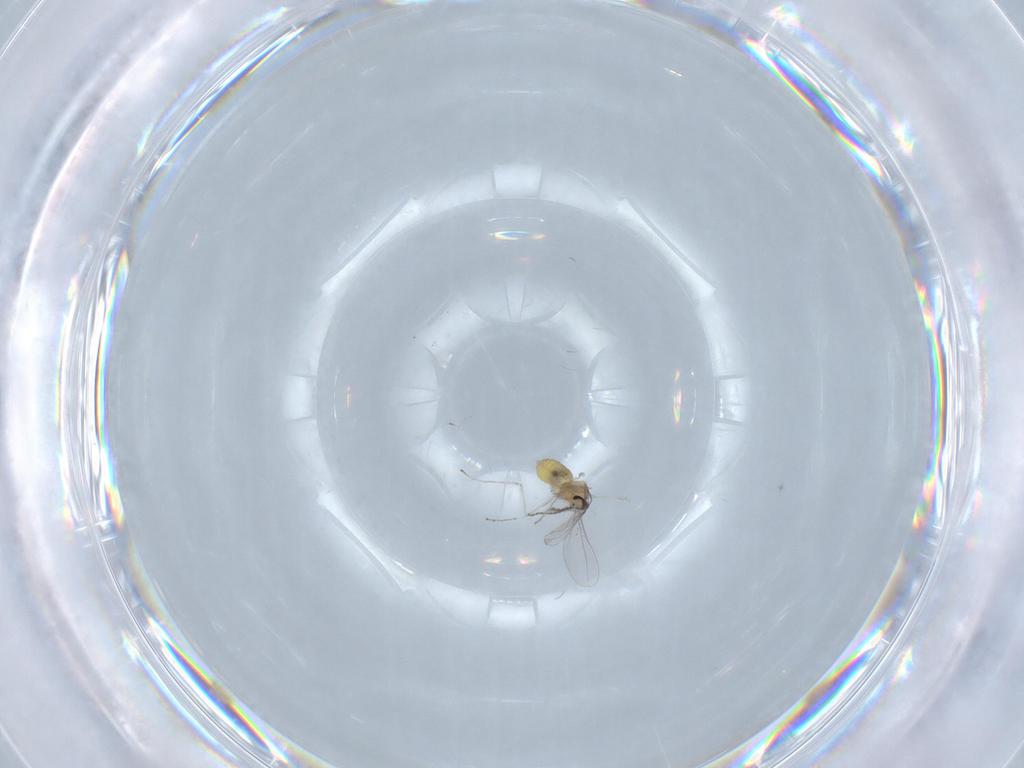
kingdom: Animalia
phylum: Arthropoda
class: Insecta
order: Diptera
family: Cecidomyiidae
